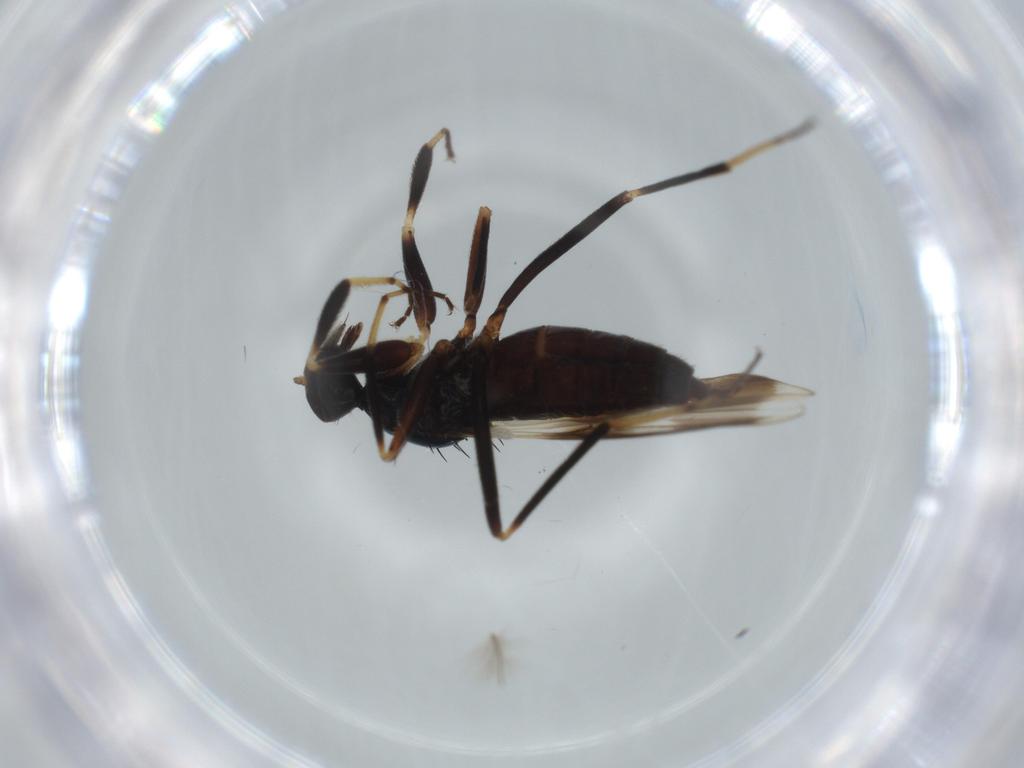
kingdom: Animalia
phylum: Arthropoda
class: Insecta
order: Diptera
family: Hybotidae
